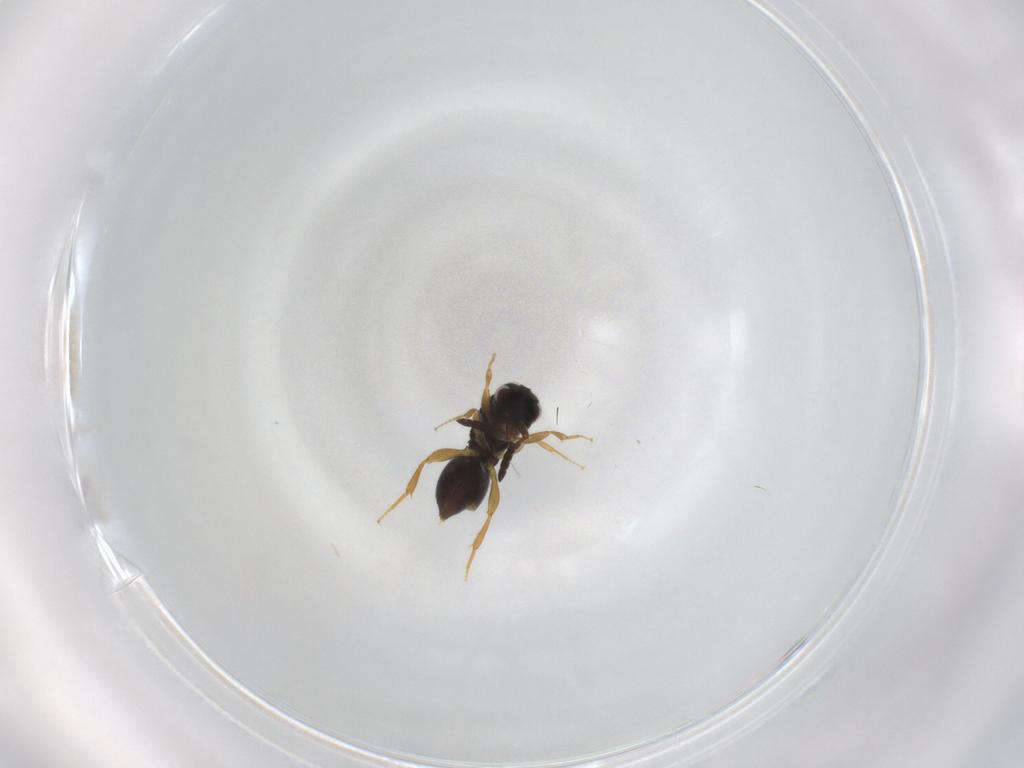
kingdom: Animalia
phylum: Arthropoda
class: Insecta
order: Hymenoptera
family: Ceraphronidae
